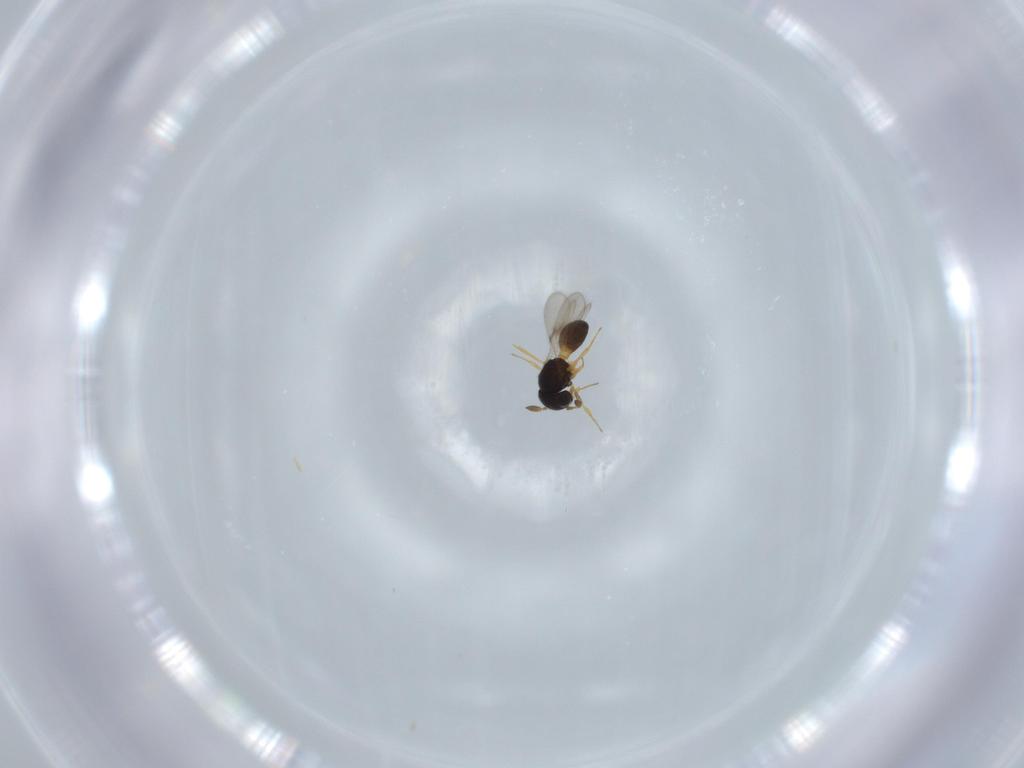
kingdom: Animalia
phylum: Arthropoda
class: Insecta
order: Hymenoptera
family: Scelionidae
